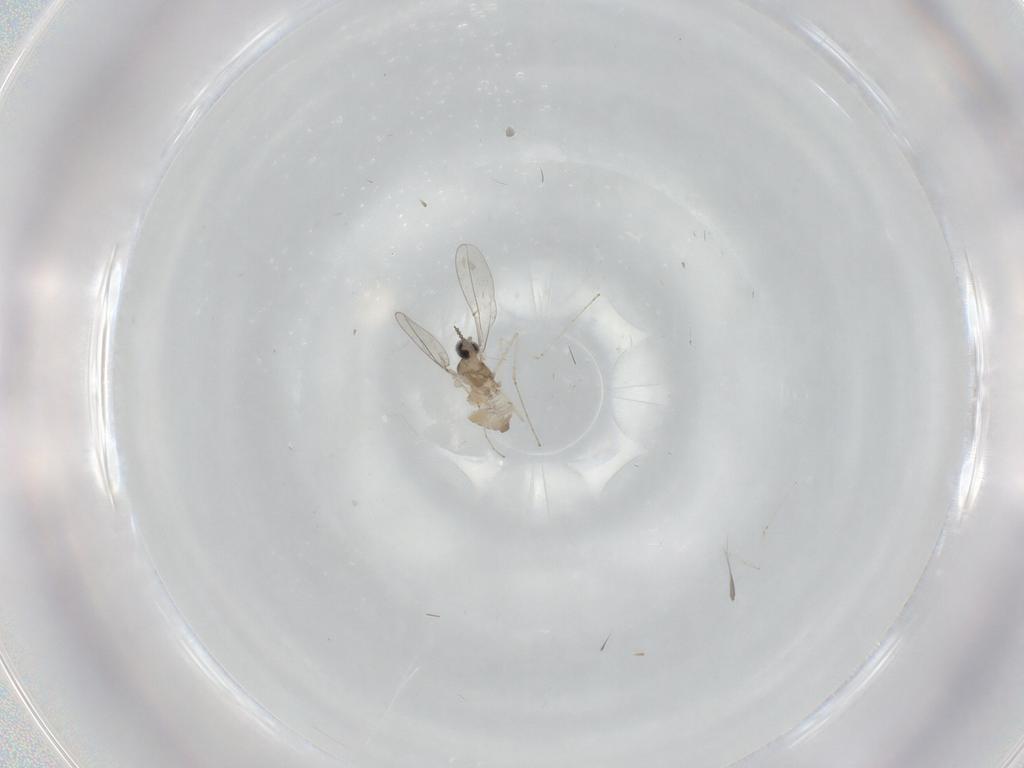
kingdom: Animalia
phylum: Arthropoda
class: Insecta
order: Diptera
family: Cecidomyiidae
